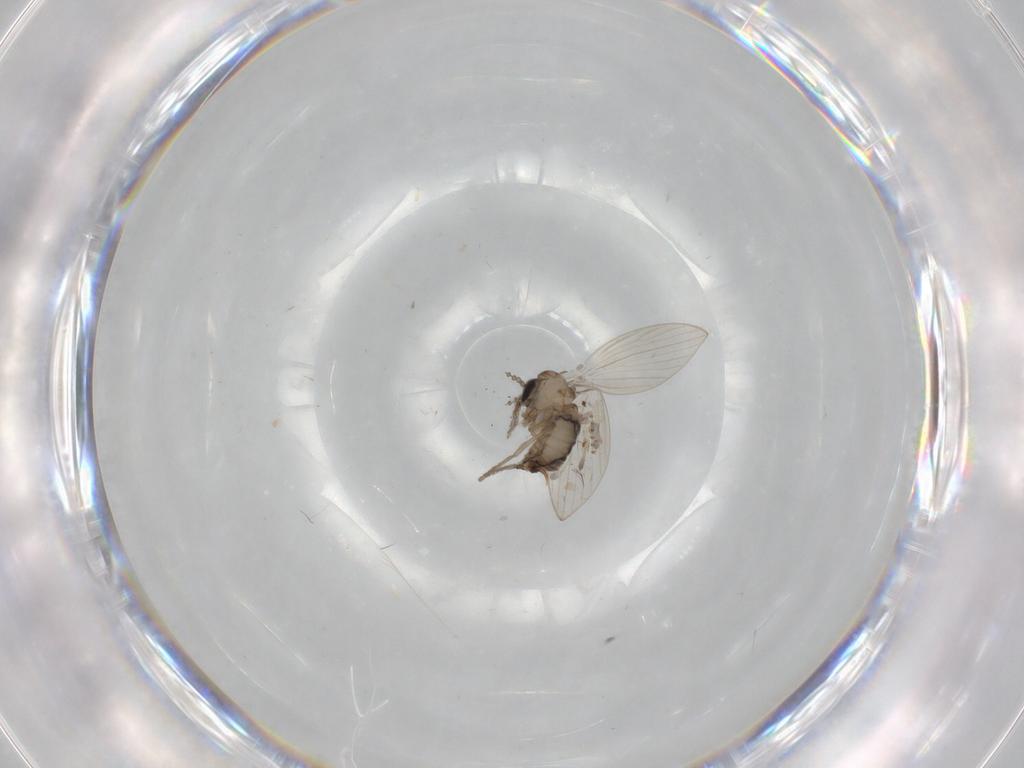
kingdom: Animalia
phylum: Arthropoda
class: Insecta
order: Diptera
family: Psychodidae
